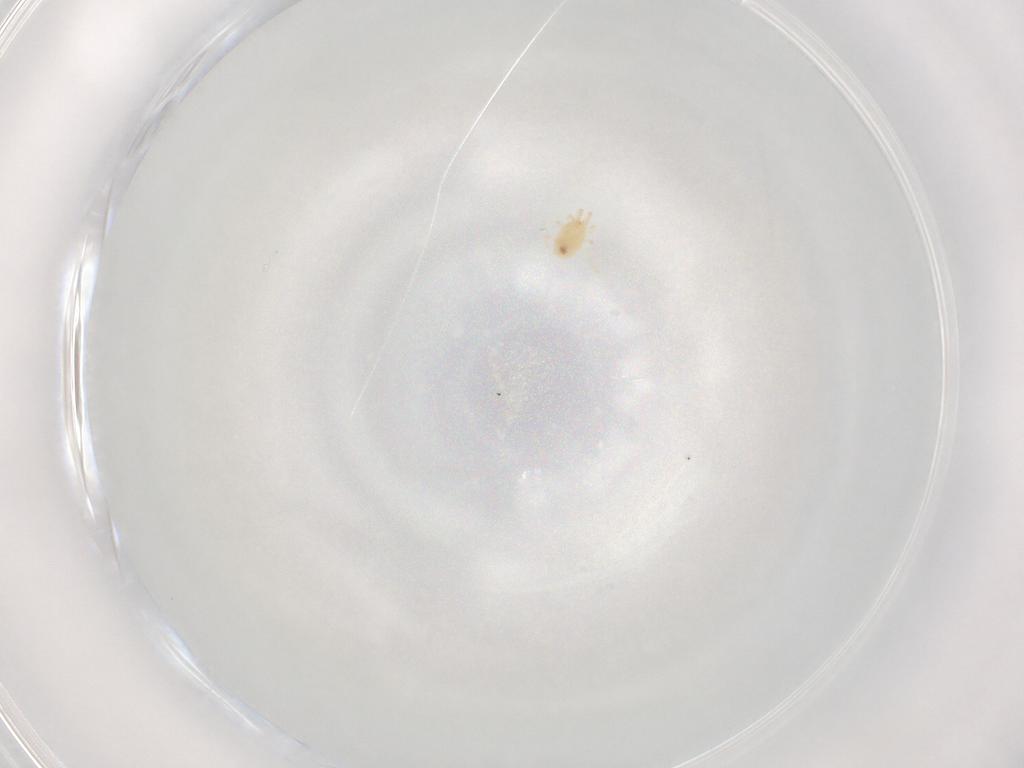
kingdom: Animalia
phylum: Arthropoda
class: Arachnida
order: Mesostigmata
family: Phytoseiidae
